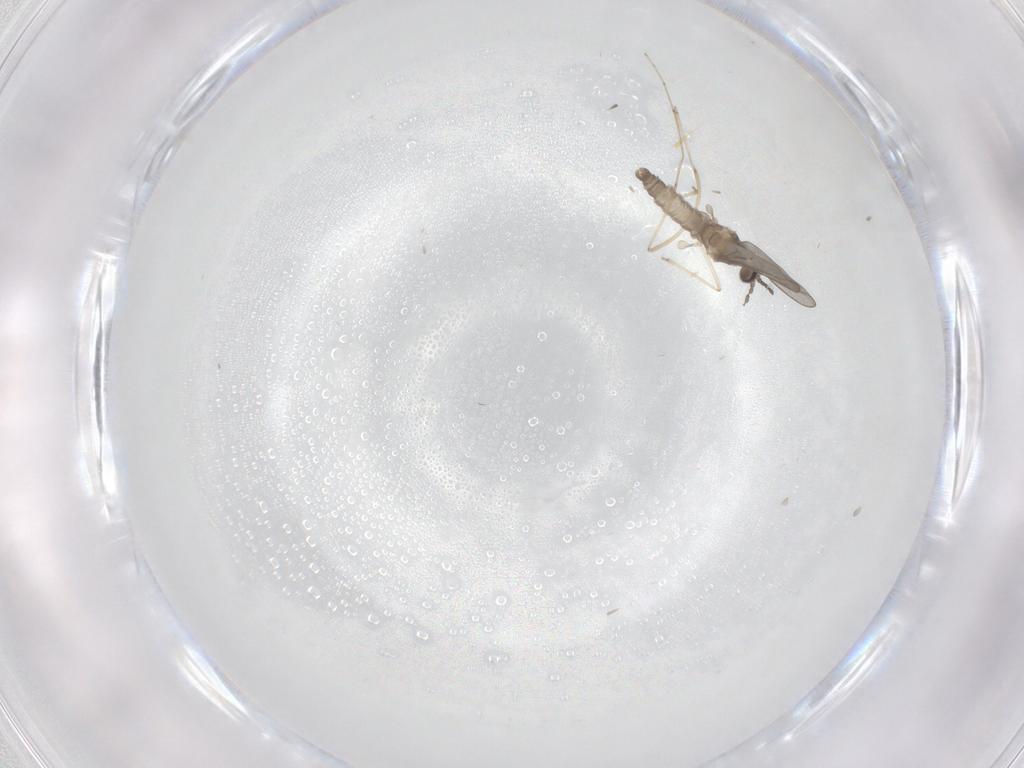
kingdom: Animalia
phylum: Arthropoda
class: Insecta
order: Diptera
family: Cecidomyiidae
